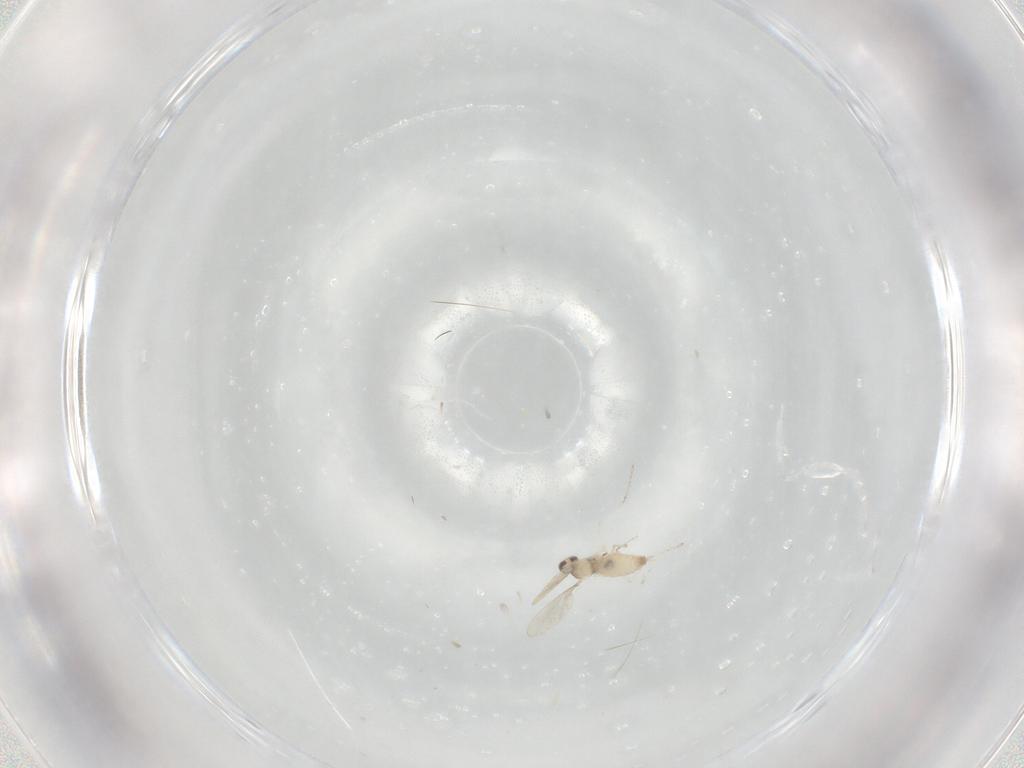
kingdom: Animalia
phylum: Arthropoda
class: Insecta
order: Diptera
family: Cecidomyiidae
